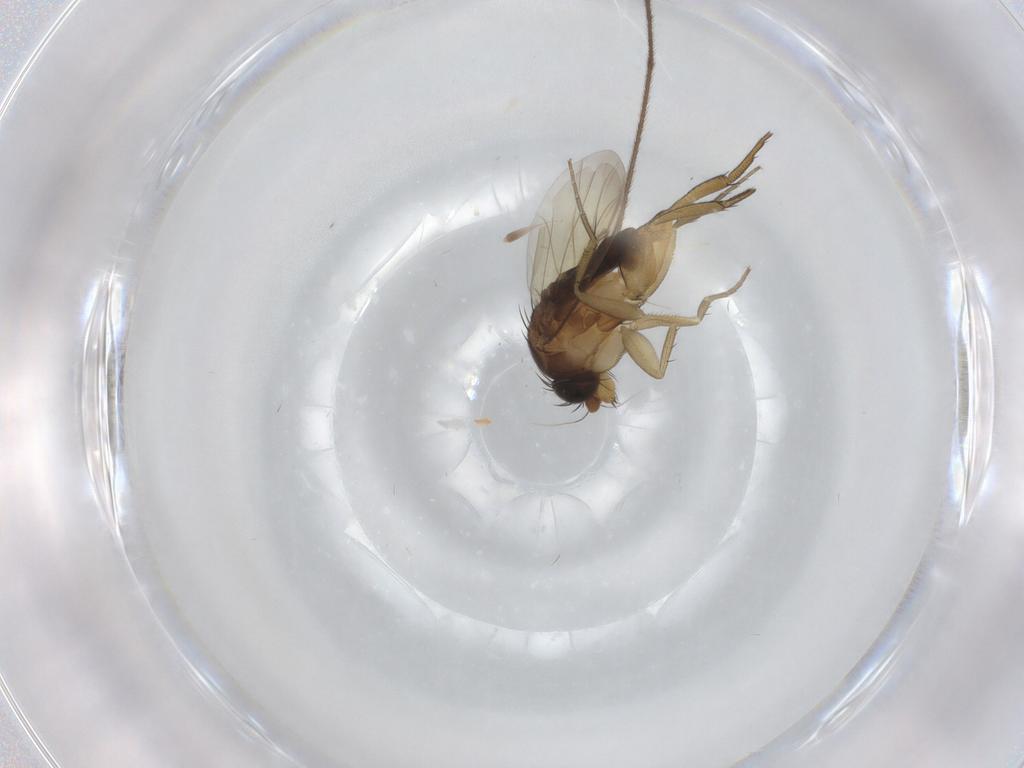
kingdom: Animalia
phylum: Arthropoda
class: Insecta
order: Diptera
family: Phoridae
